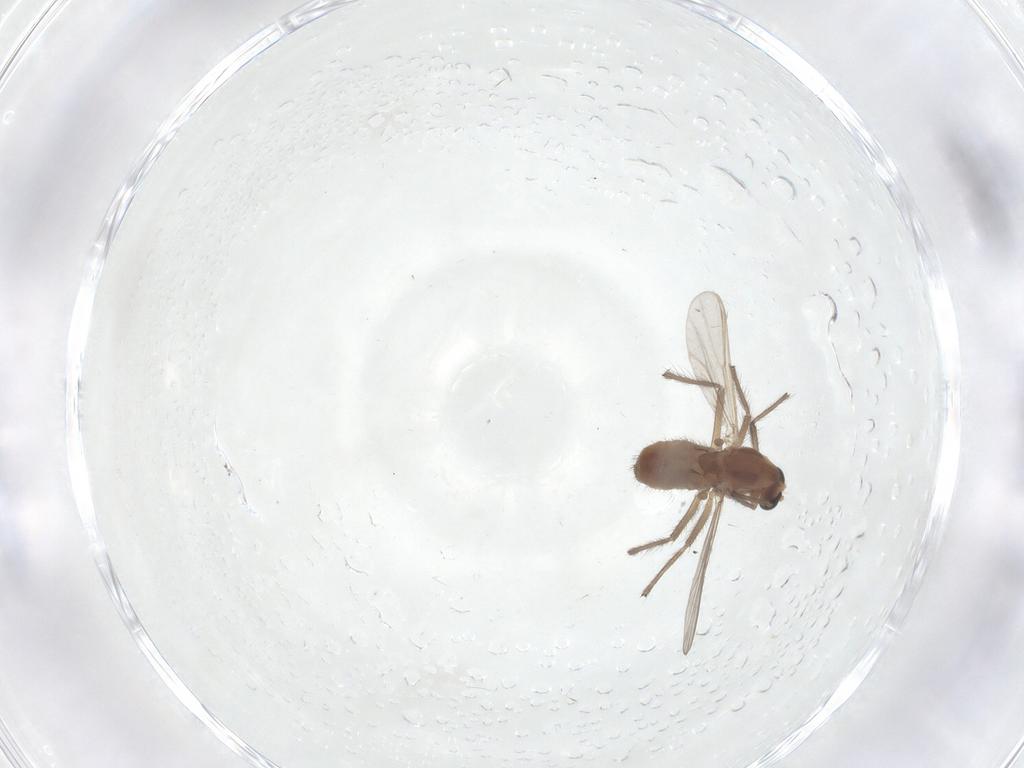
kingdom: Animalia
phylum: Arthropoda
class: Insecta
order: Diptera
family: Chironomidae
